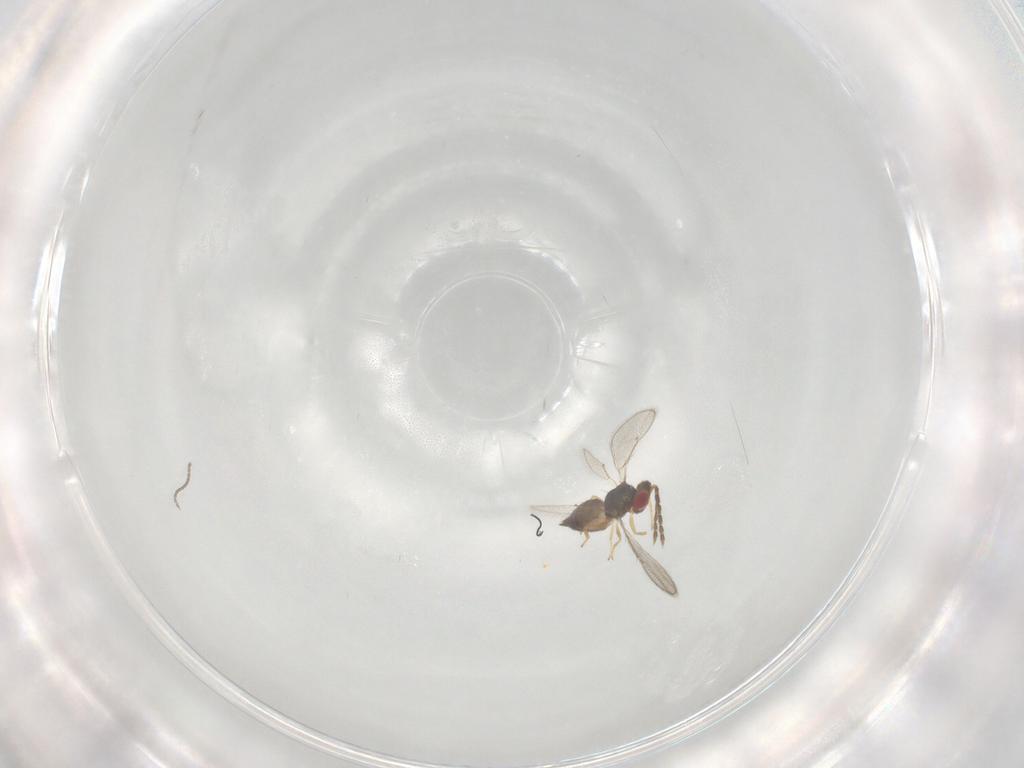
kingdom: Animalia
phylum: Arthropoda
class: Insecta
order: Hymenoptera
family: Eulophidae
